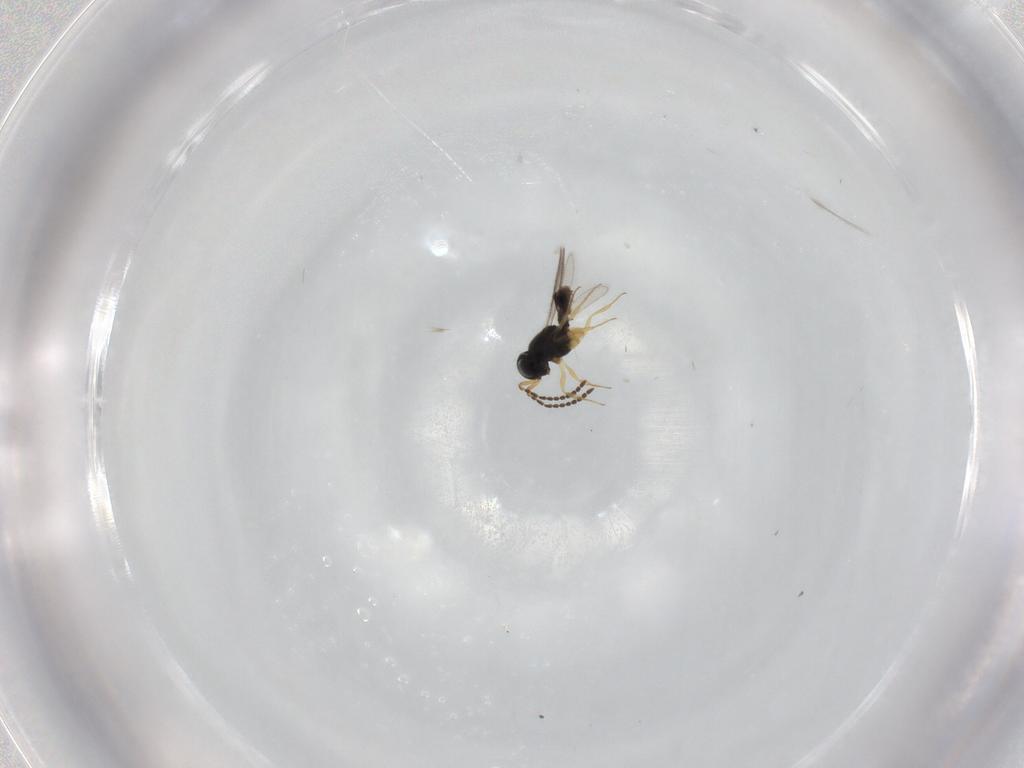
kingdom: Animalia
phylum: Arthropoda
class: Insecta
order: Hymenoptera
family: Scelionidae
